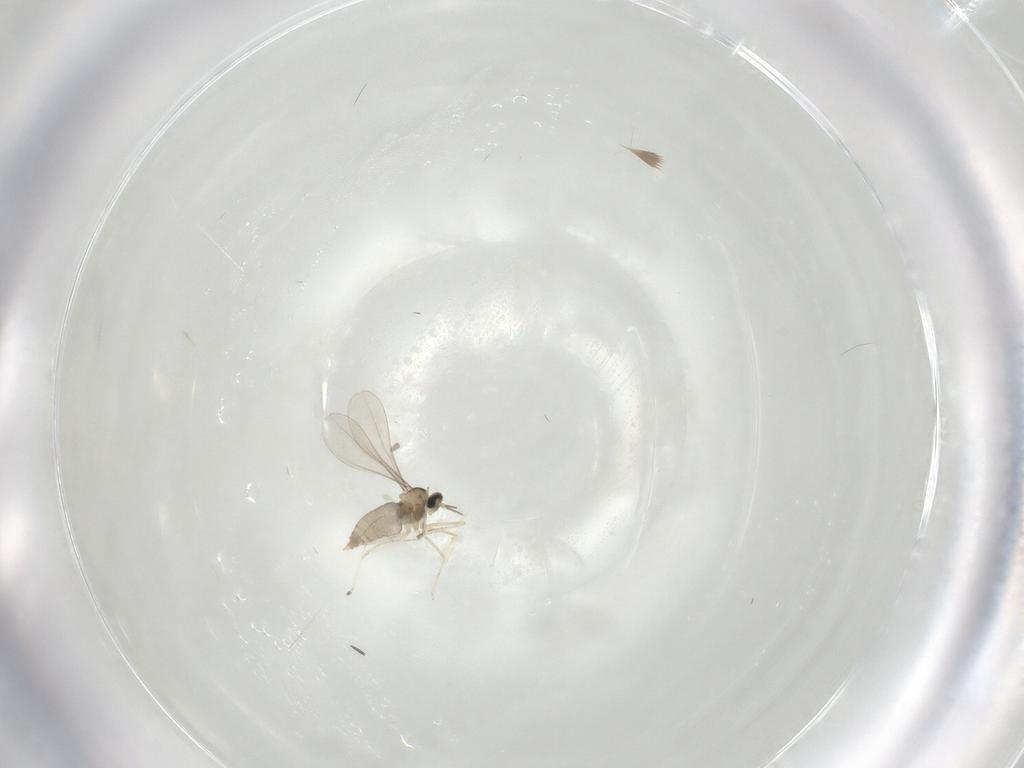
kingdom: Animalia
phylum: Arthropoda
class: Insecta
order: Diptera
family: Cecidomyiidae
